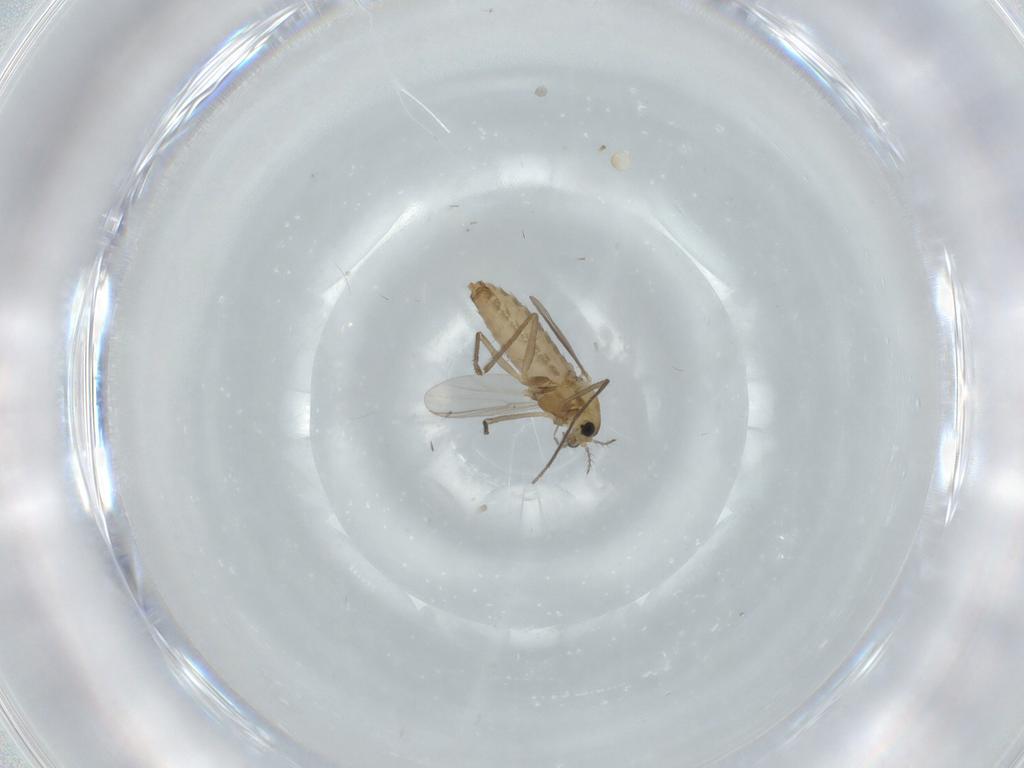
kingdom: Animalia
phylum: Arthropoda
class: Insecta
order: Diptera
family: Chironomidae
